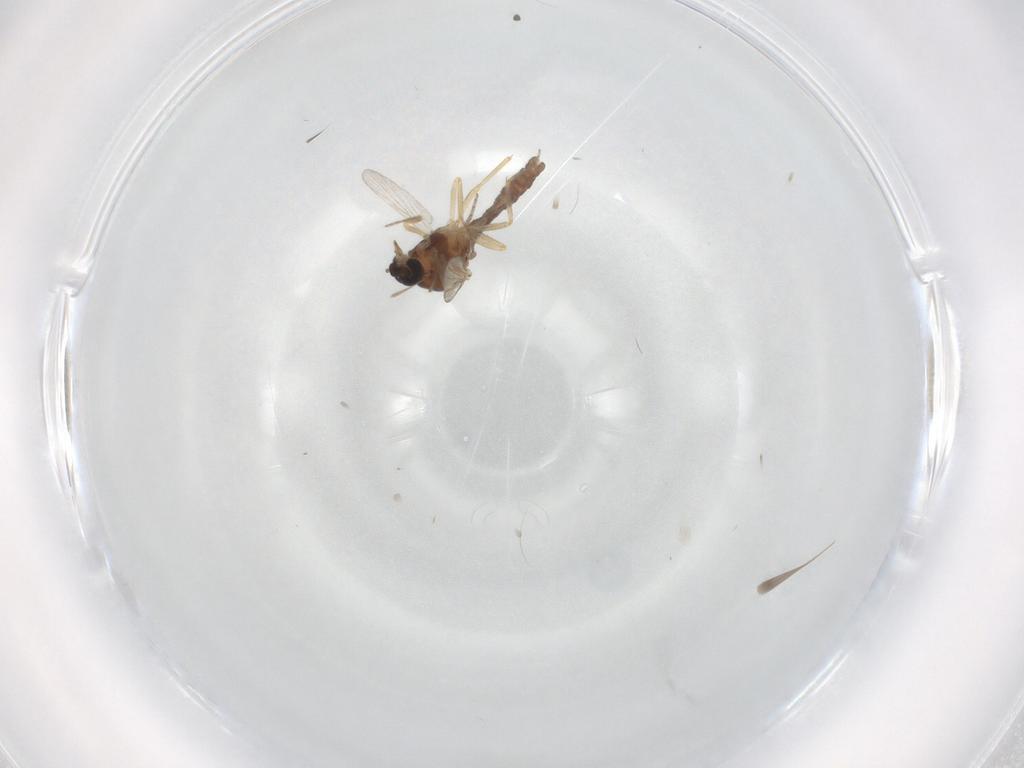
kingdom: Animalia
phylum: Arthropoda
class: Insecta
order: Diptera
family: Ceratopogonidae
